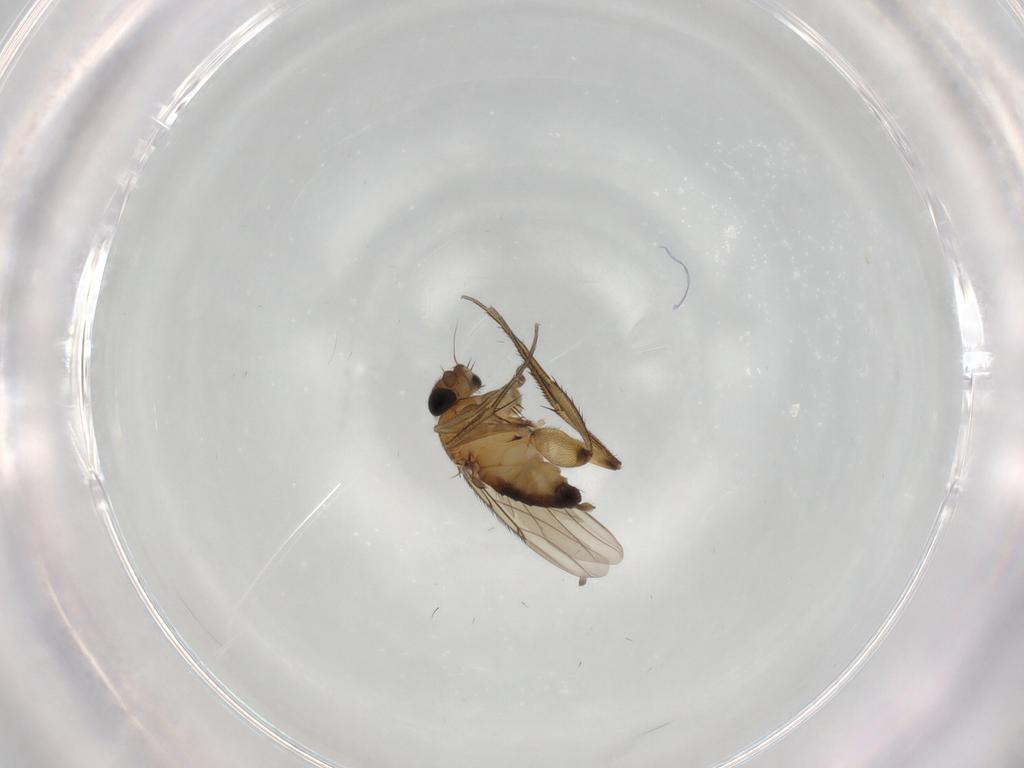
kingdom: Animalia
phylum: Arthropoda
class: Insecta
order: Diptera
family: Phoridae
